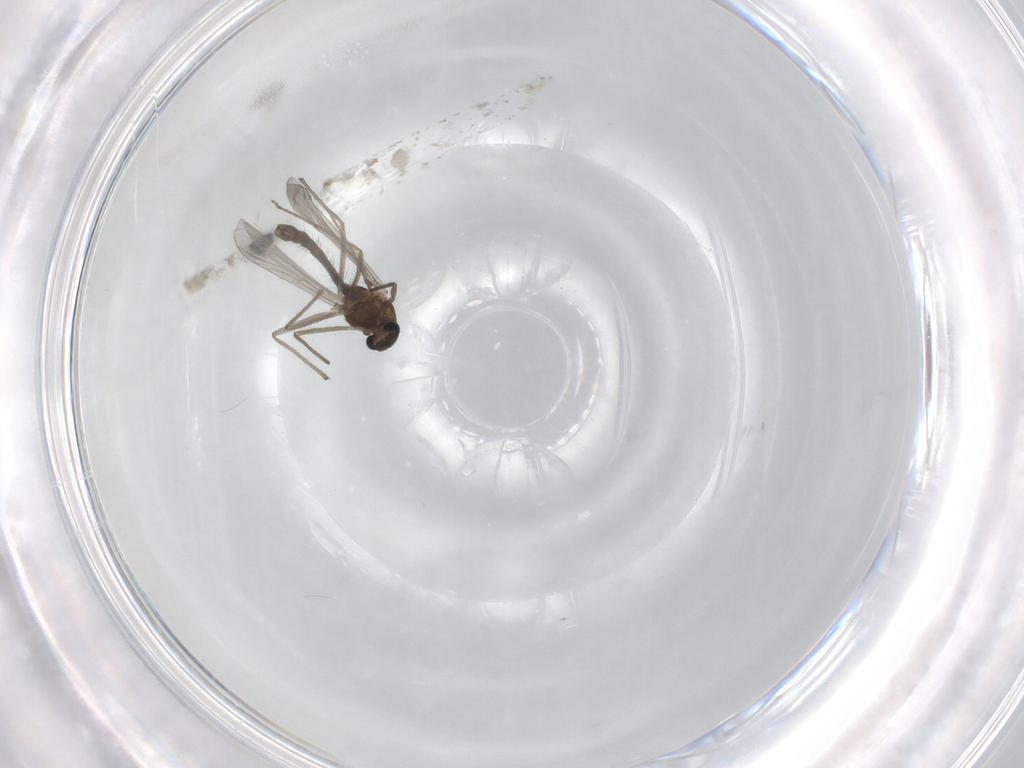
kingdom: Animalia
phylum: Arthropoda
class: Insecta
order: Diptera
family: Chironomidae
